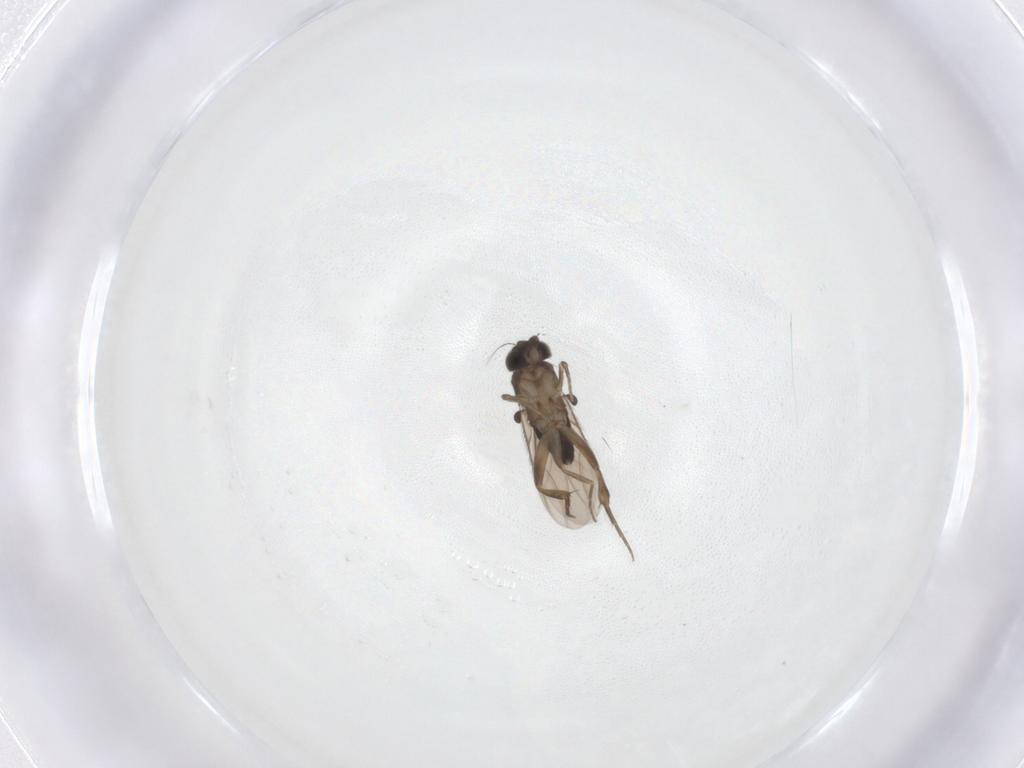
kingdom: Animalia
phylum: Arthropoda
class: Insecta
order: Diptera
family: Phoridae
